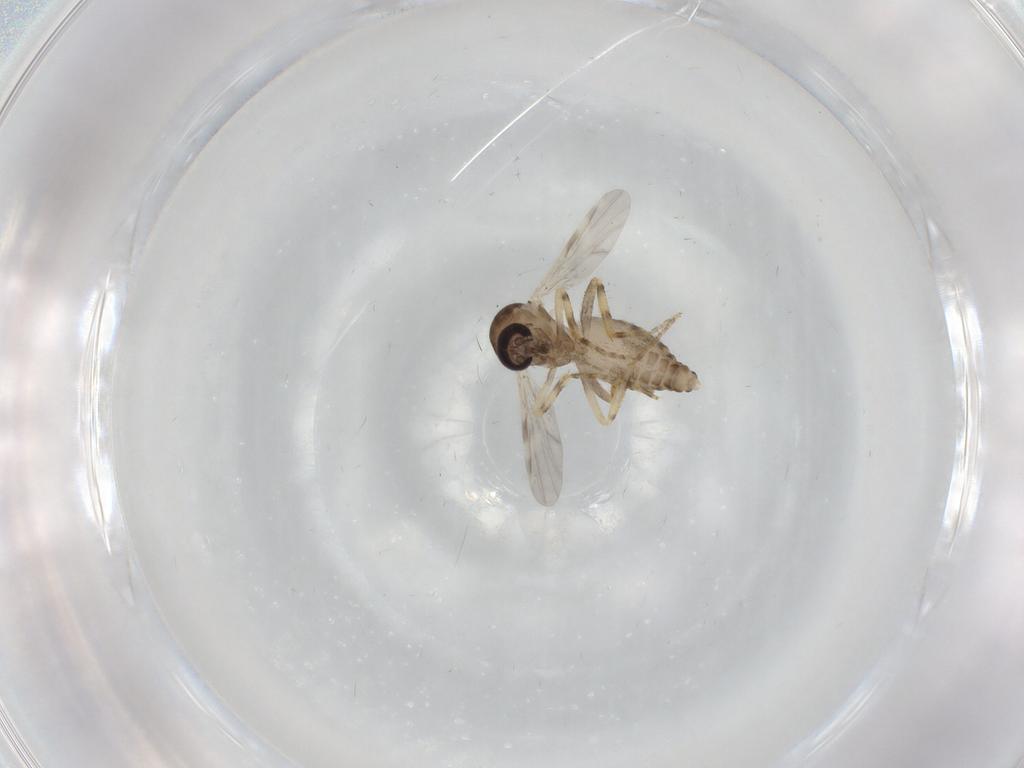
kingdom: Animalia
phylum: Arthropoda
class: Insecta
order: Diptera
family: Ceratopogonidae
